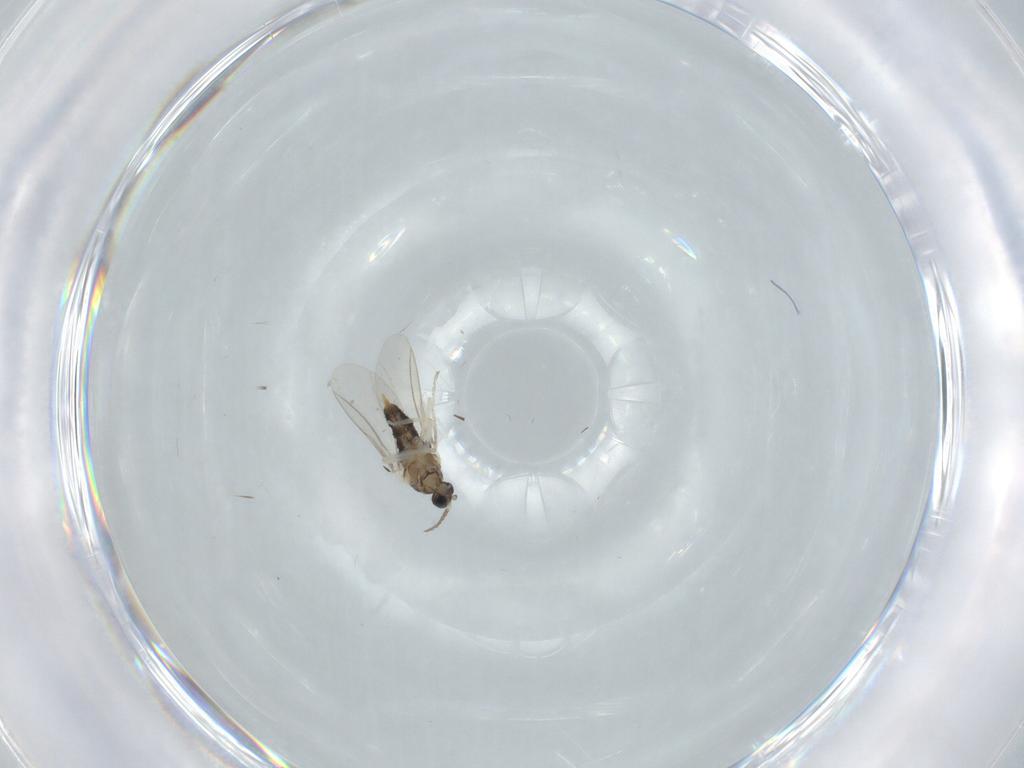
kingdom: Animalia
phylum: Arthropoda
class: Insecta
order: Diptera
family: Cecidomyiidae
